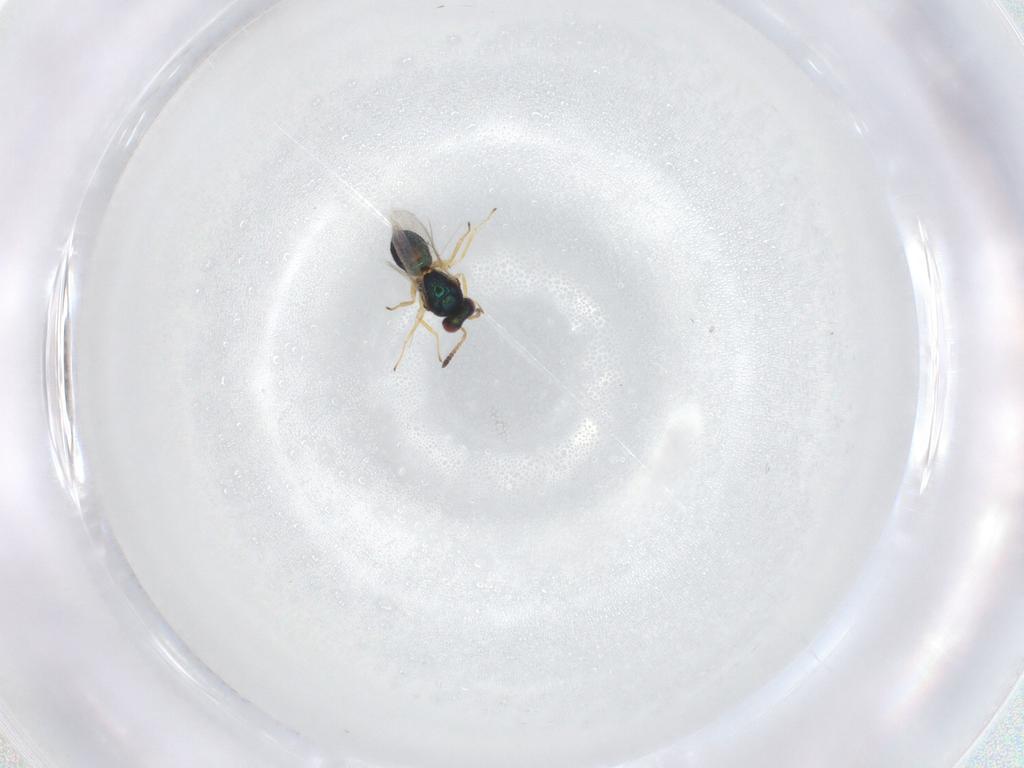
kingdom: Animalia
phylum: Arthropoda
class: Insecta
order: Hymenoptera
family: Tetracampidae
